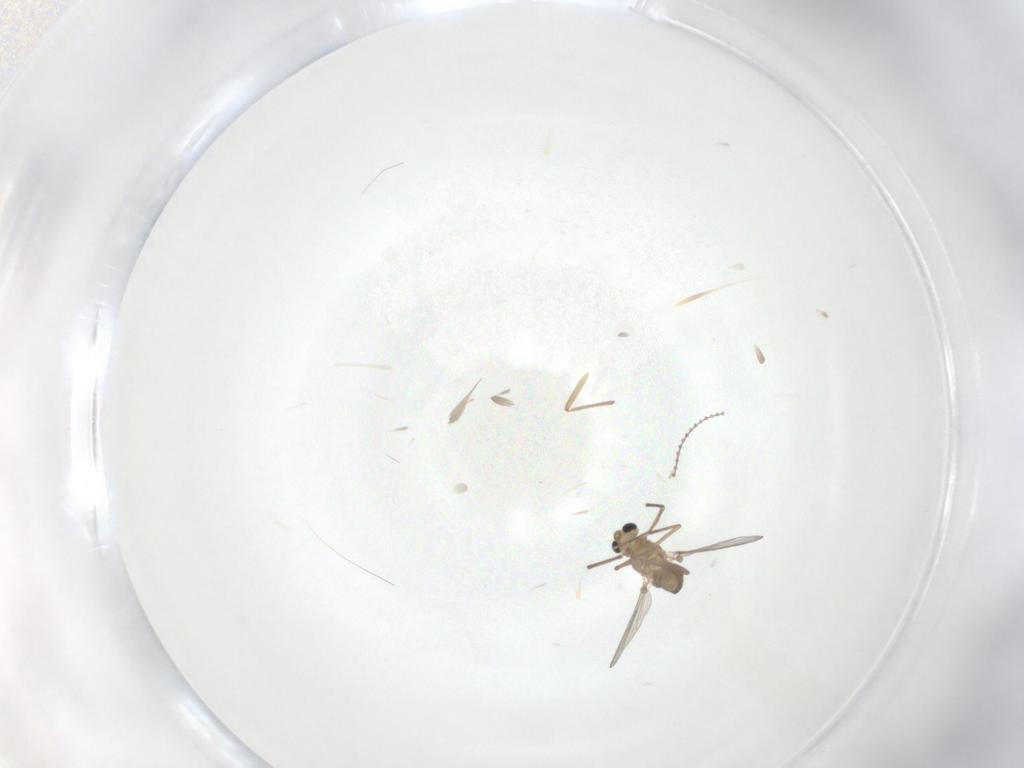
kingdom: Animalia
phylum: Arthropoda
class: Insecta
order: Diptera
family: Chironomidae
